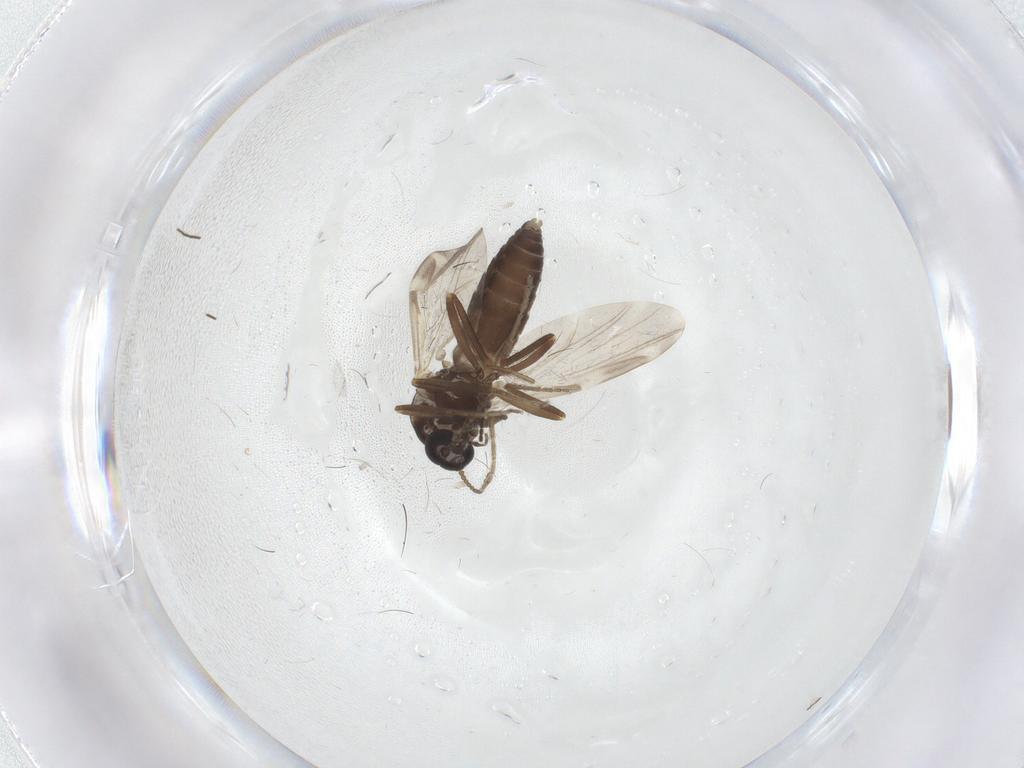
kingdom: Animalia
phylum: Arthropoda
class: Insecta
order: Diptera
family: Ceratopogonidae
